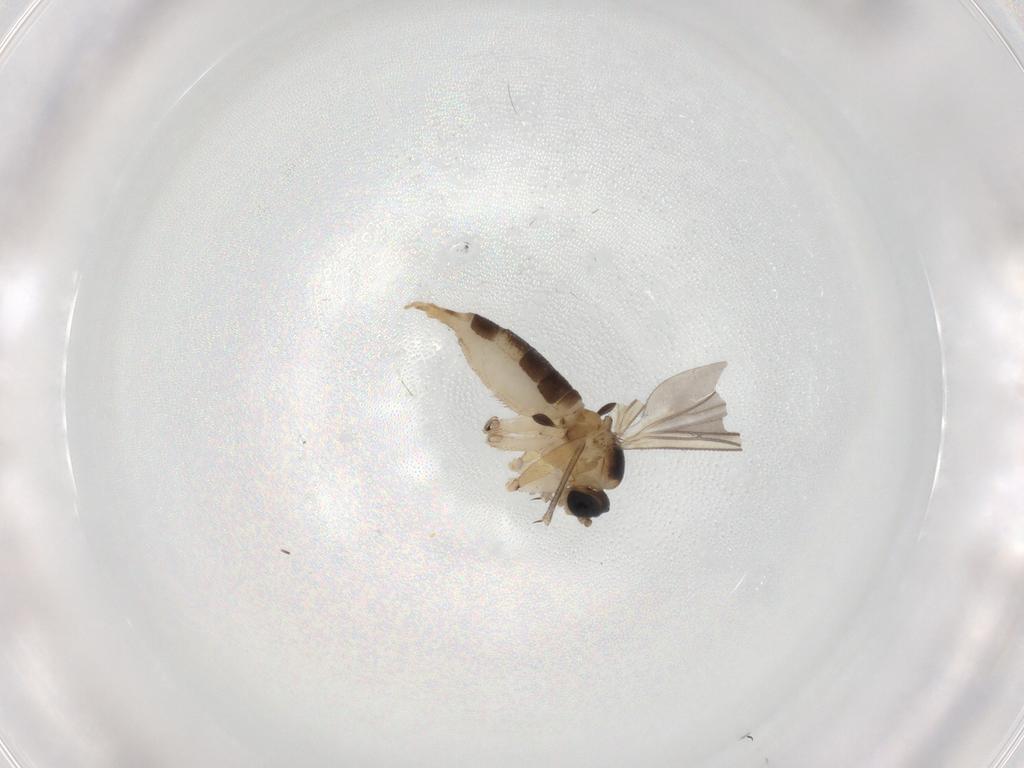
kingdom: Animalia
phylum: Arthropoda
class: Insecta
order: Diptera
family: Sciaridae
